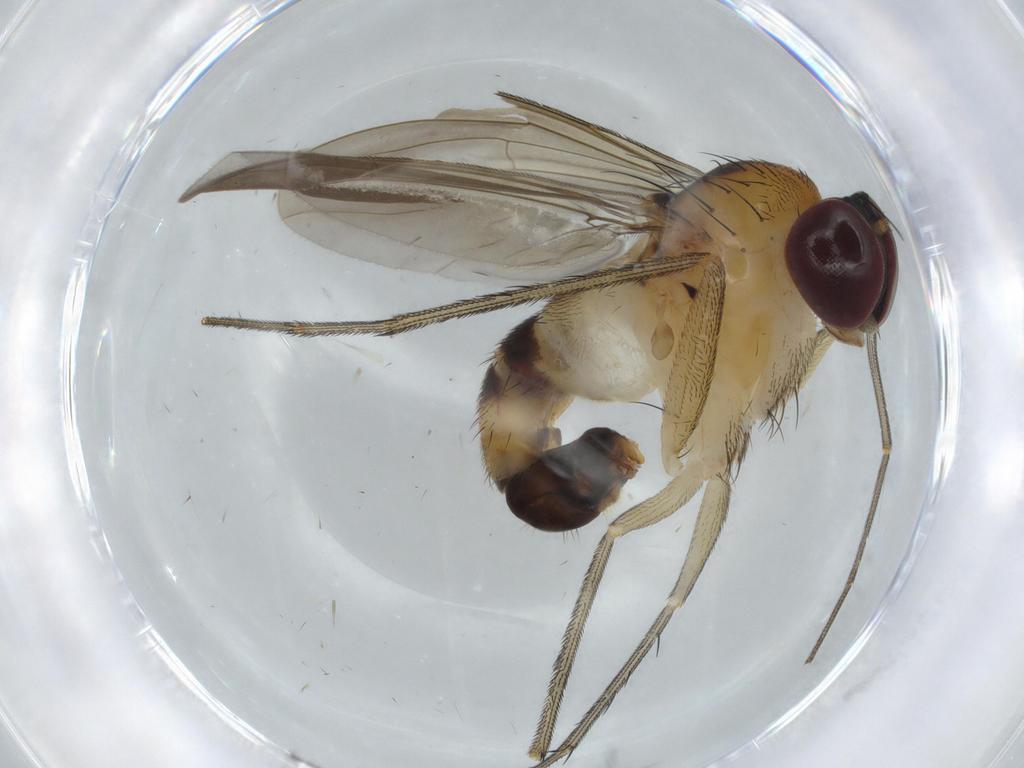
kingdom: Animalia
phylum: Arthropoda
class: Insecta
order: Diptera
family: Dolichopodidae
